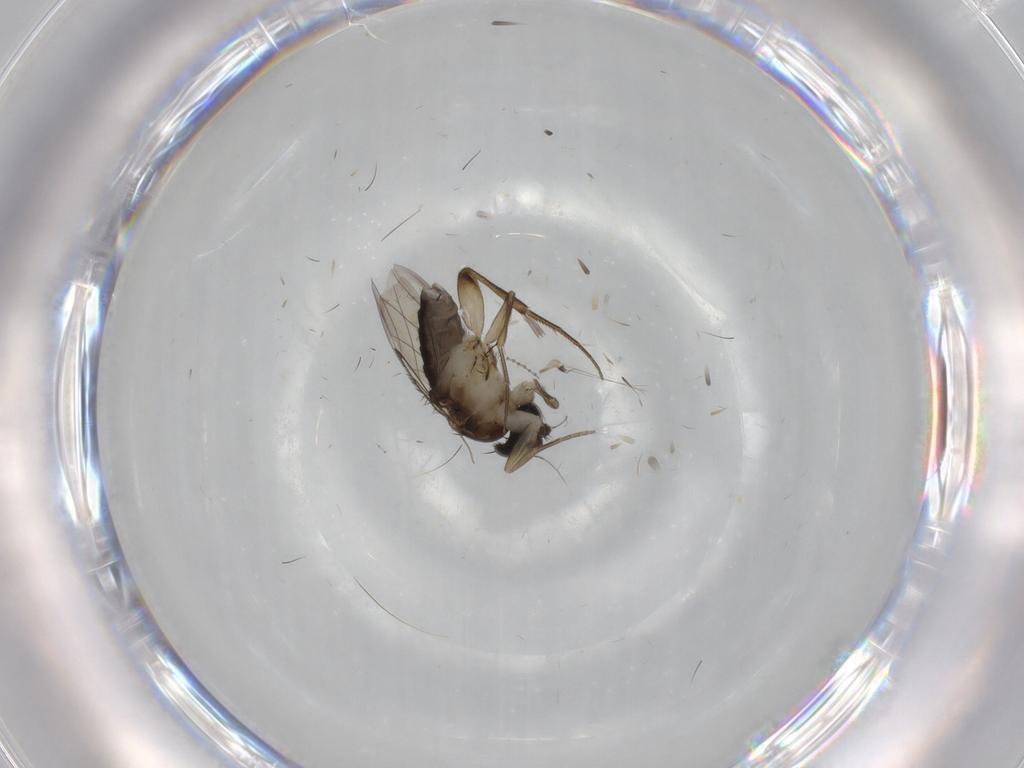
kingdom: Animalia
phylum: Arthropoda
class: Insecta
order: Diptera
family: Phoridae
